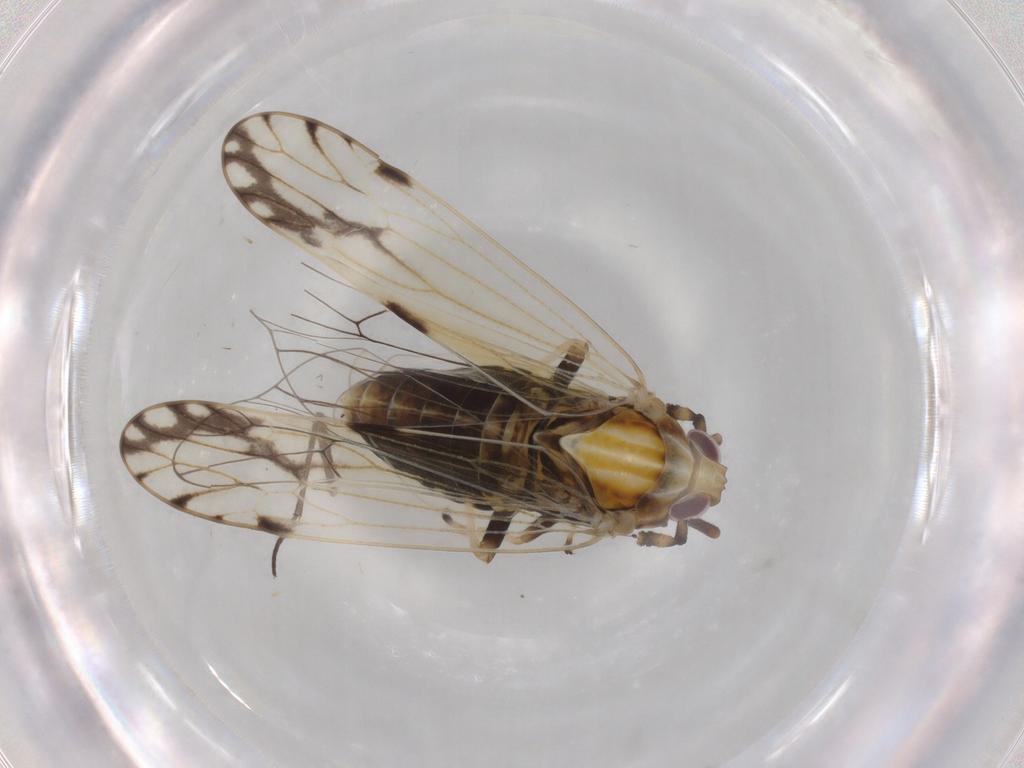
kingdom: Animalia
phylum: Arthropoda
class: Insecta
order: Hemiptera
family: Delphacidae
